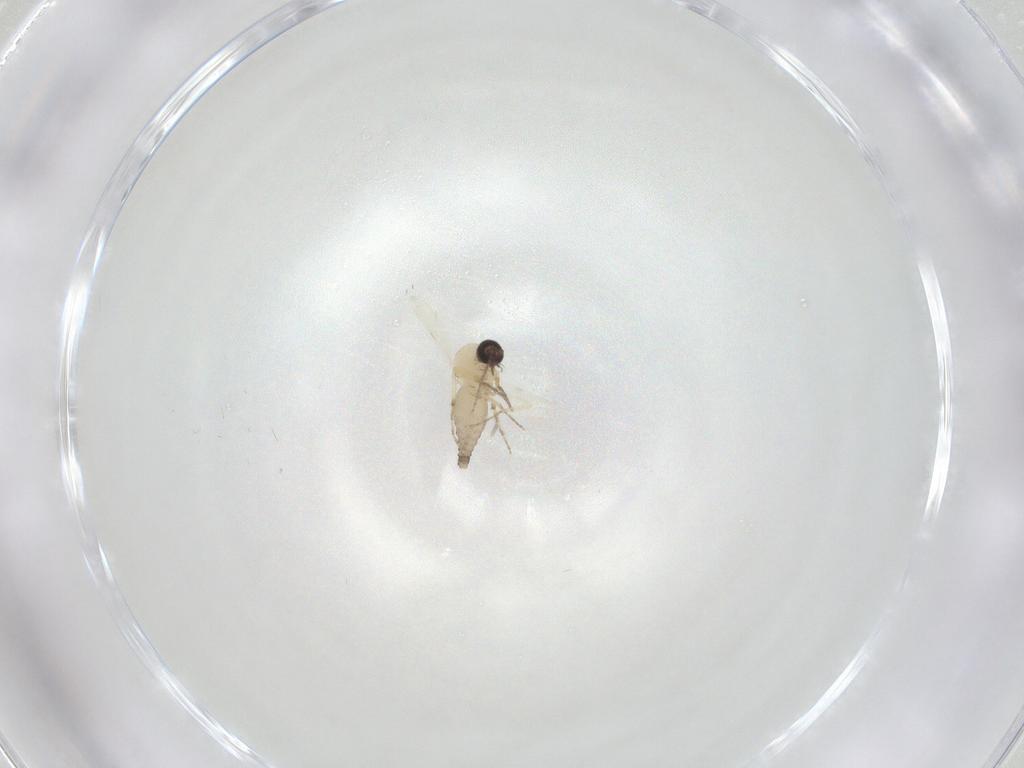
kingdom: Animalia
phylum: Arthropoda
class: Insecta
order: Diptera
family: Ceratopogonidae
